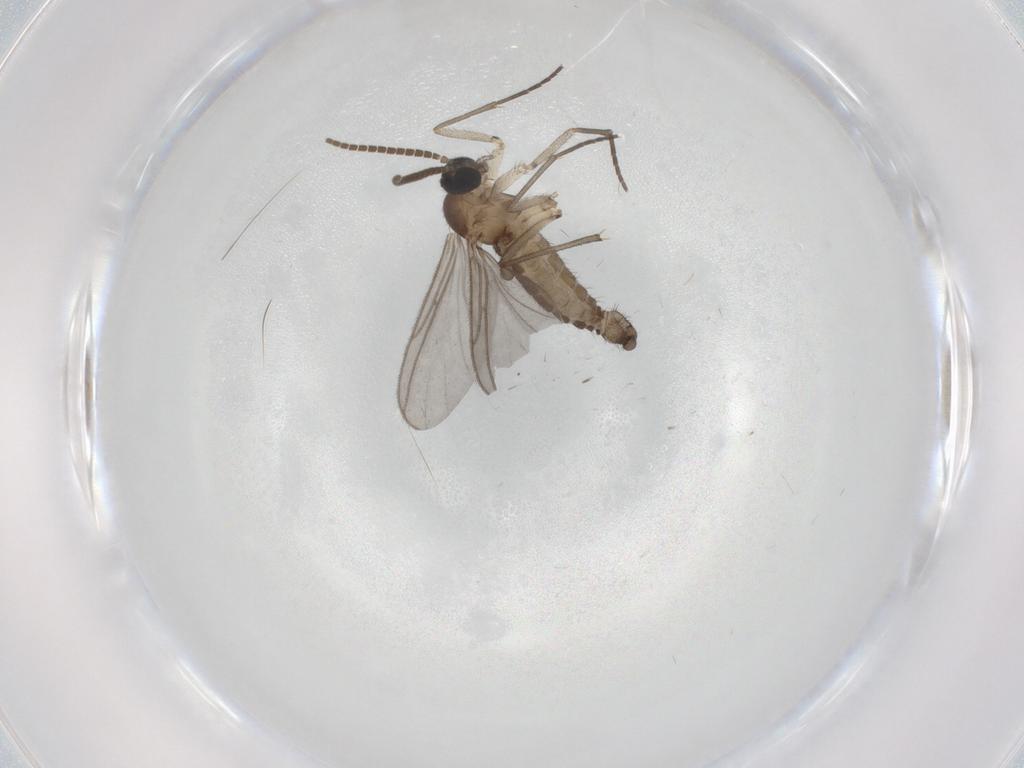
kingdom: Animalia
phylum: Arthropoda
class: Insecta
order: Diptera
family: Cecidomyiidae
